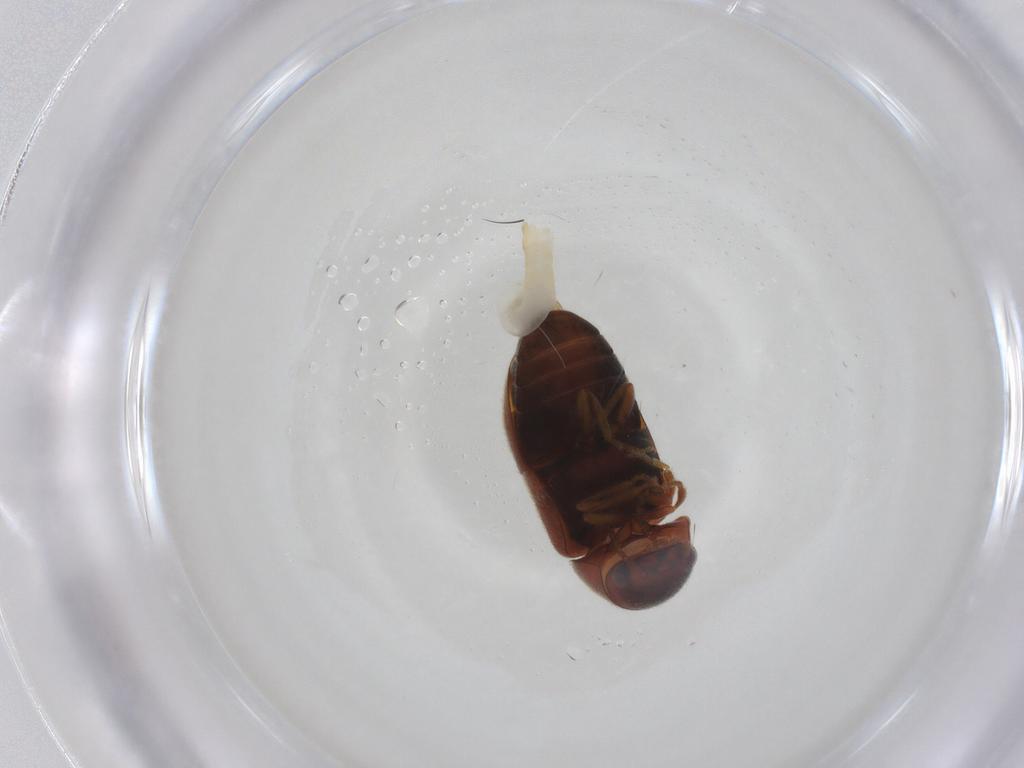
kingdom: Animalia
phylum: Arthropoda
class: Insecta
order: Coleoptera
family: Ptinidae
